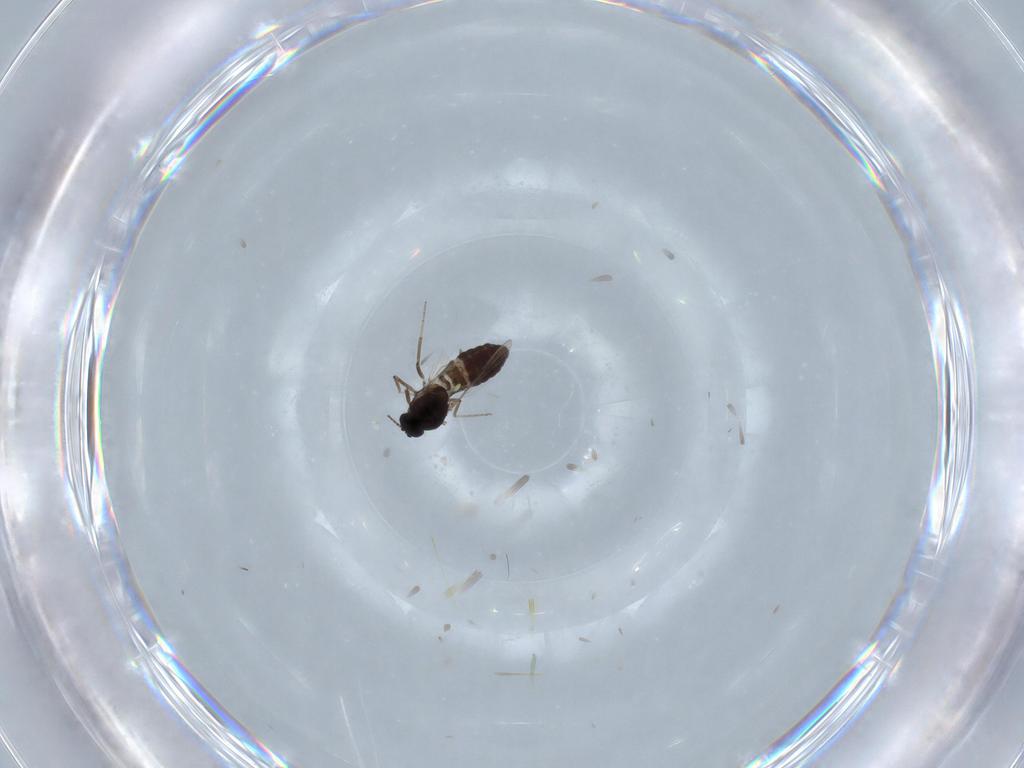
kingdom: Animalia
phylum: Arthropoda
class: Insecta
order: Diptera
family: Ceratopogonidae
